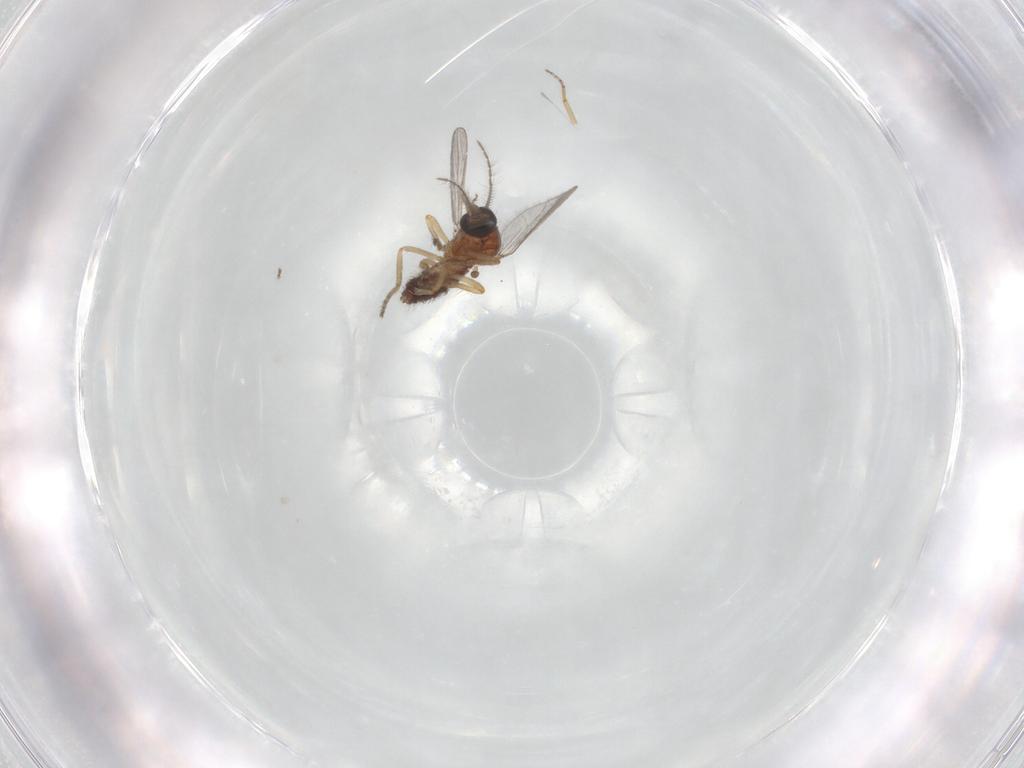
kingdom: Animalia
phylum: Arthropoda
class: Insecta
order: Diptera
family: Ceratopogonidae
